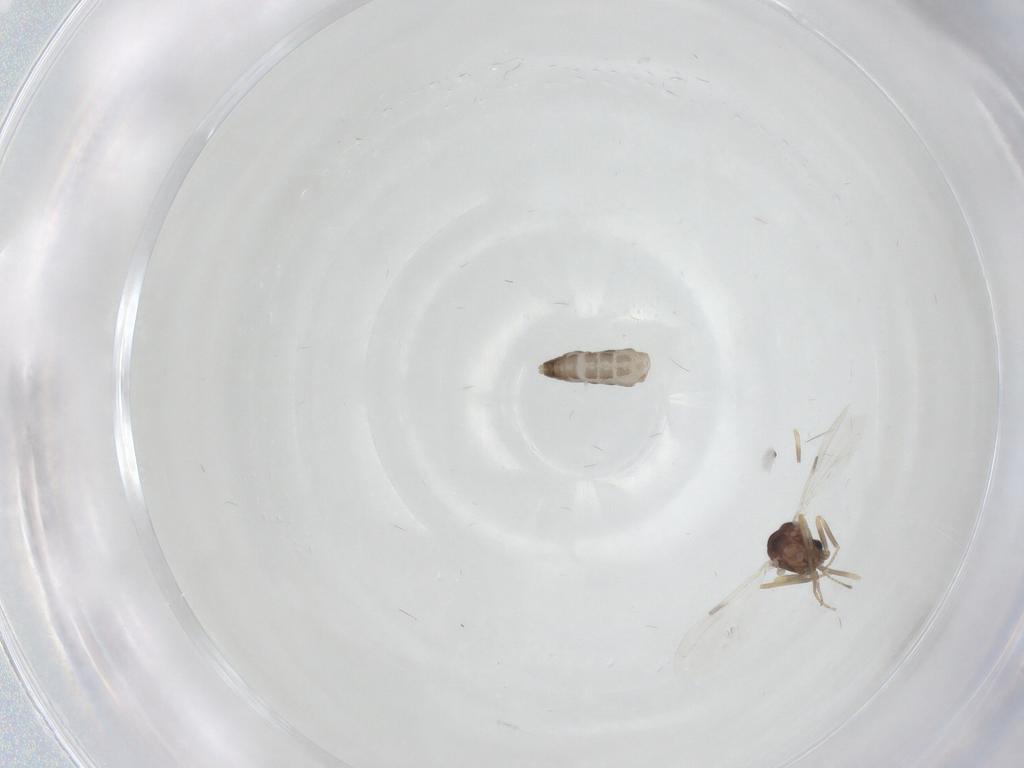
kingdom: Animalia
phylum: Arthropoda
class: Insecta
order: Diptera
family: Ceratopogonidae
